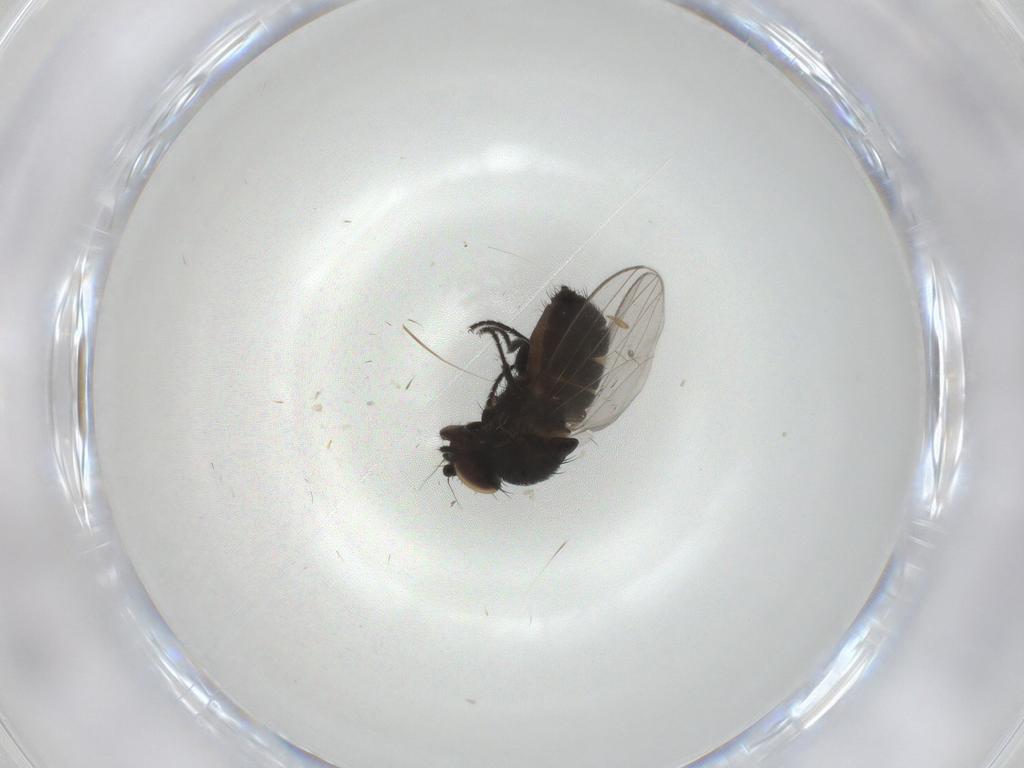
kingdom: Animalia
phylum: Arthropoda
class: Insecta
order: Diptera
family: Milichiidae
